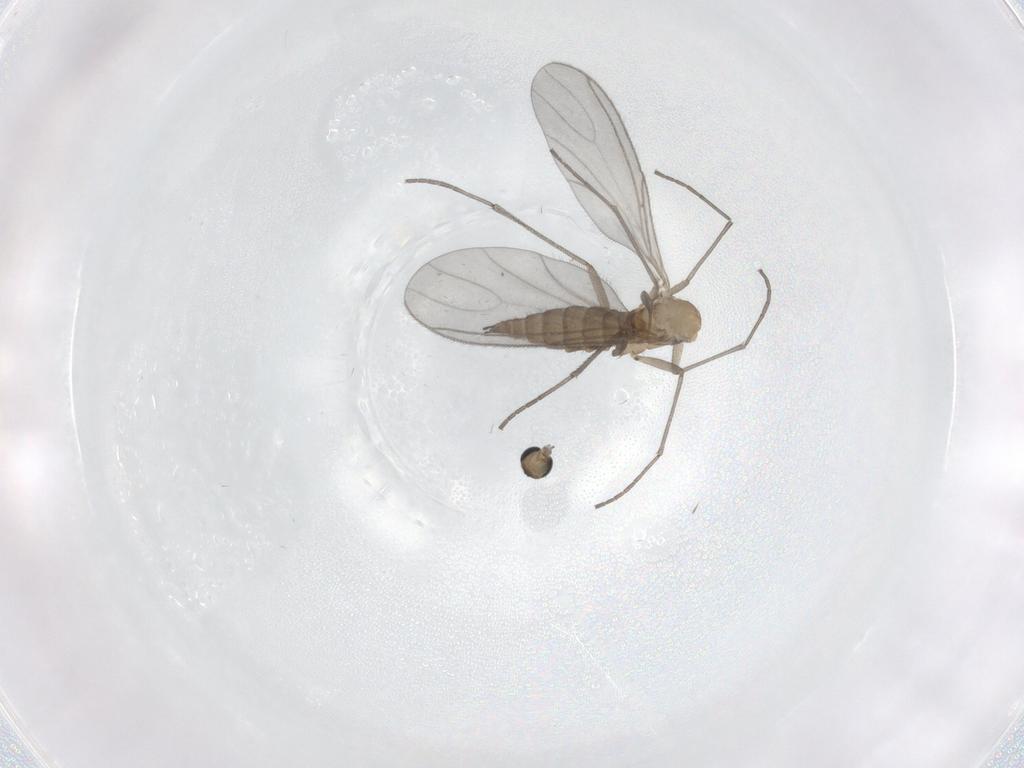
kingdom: Animalia
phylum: Arthropoda
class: Insecta
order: Diptera
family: Sciaridae
